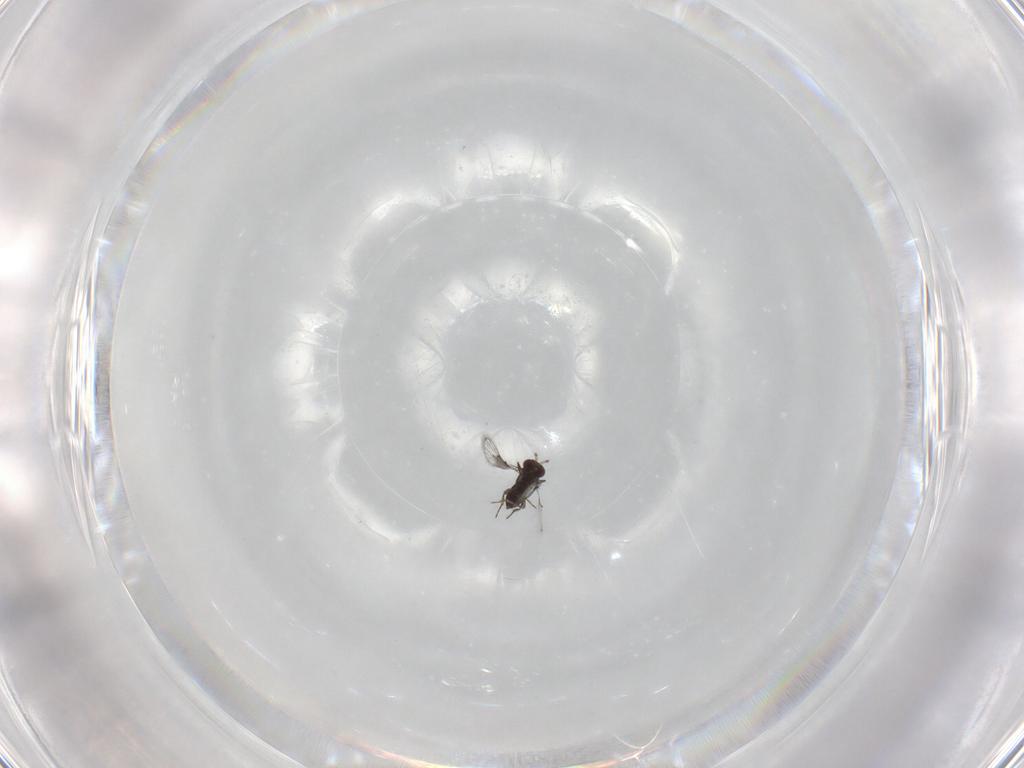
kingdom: Animalia
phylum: Arthropoda
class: Insecta
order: Hymenoptera
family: Trichogrammatidae
